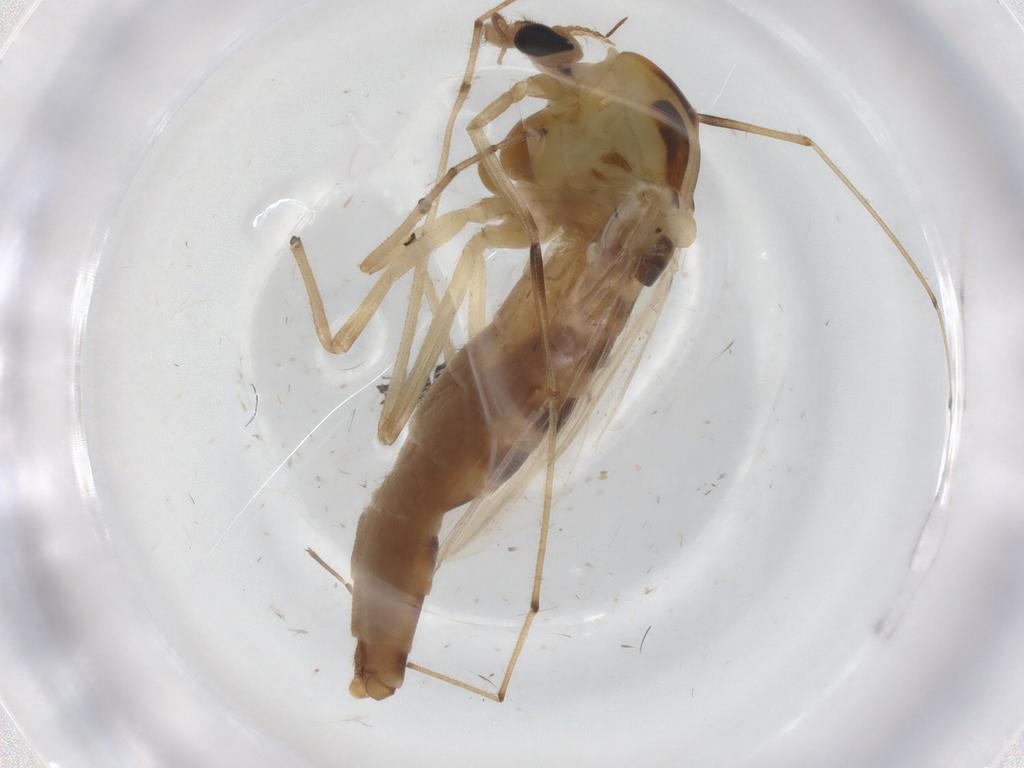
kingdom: Animalia
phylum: Arthropoda
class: Insecta
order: Diptera
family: Chironomidae
